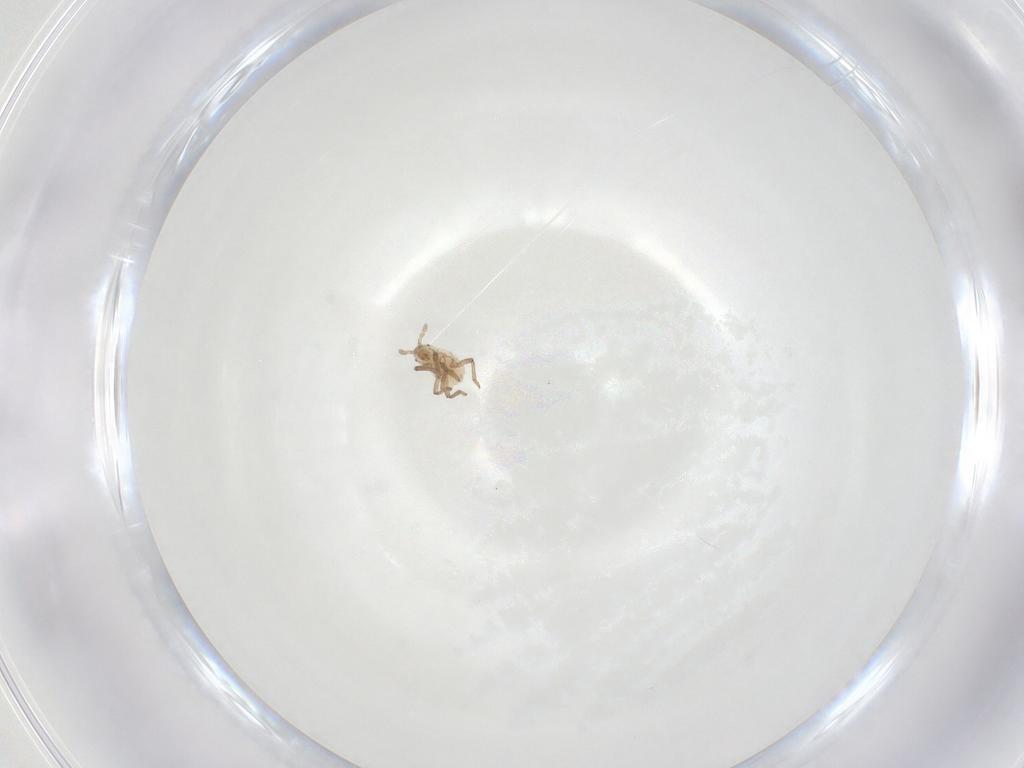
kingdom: Animalia
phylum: Arthropoda
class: Insecta
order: Hemiptera
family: Aphididae
